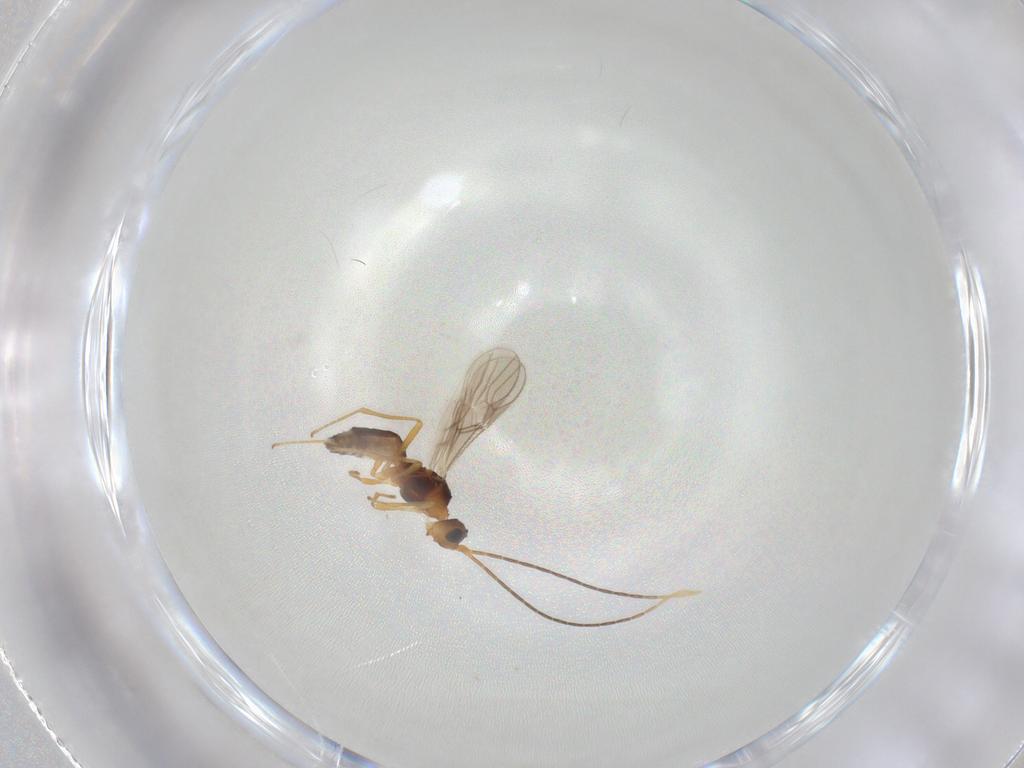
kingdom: Animalia
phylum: Arthropoda
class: Insecta
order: Hymenoptera
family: Braconidae
